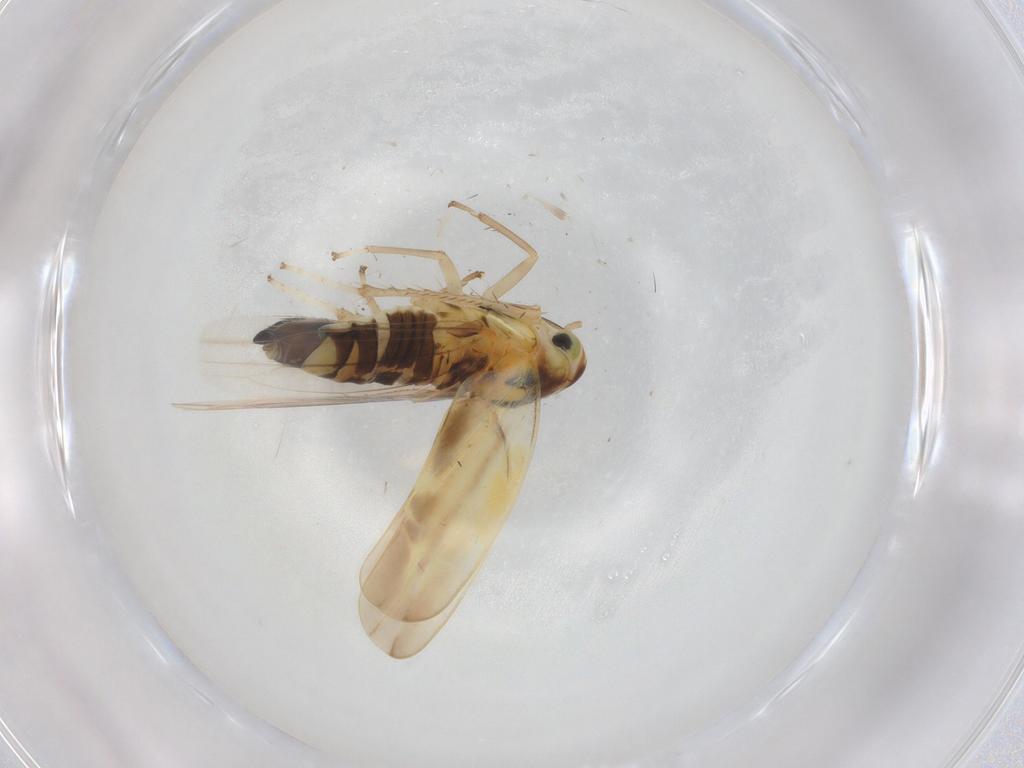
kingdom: Animalia
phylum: Arthropoda
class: Insecta
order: Hemiptera
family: Cicadellidae
